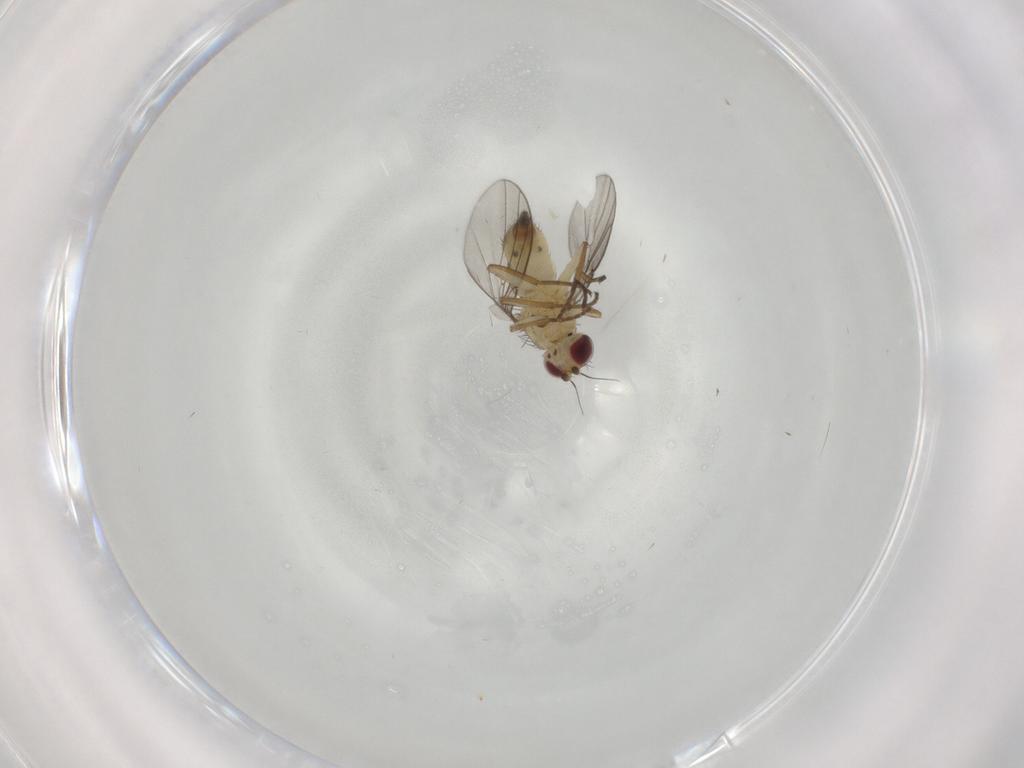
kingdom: Animalia
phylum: Arthropoda
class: Insecta
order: Diptera
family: Agromyzidae
